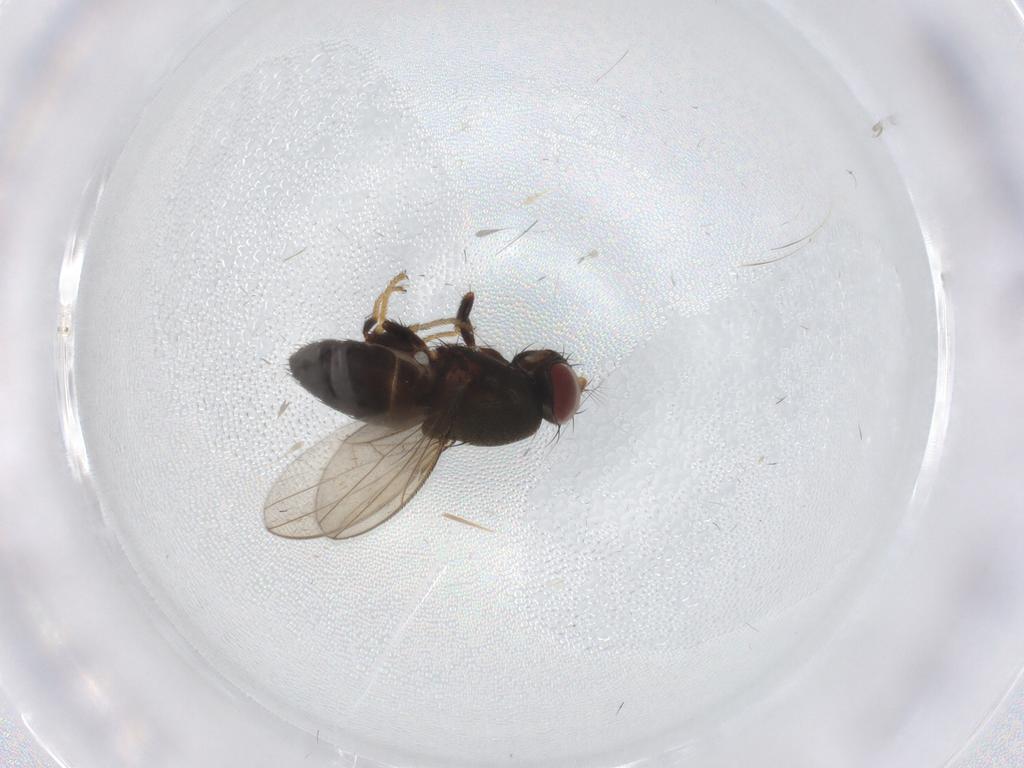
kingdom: Animalia
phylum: Arthropoda
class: Insecta
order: Diptera
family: Ephydridae
